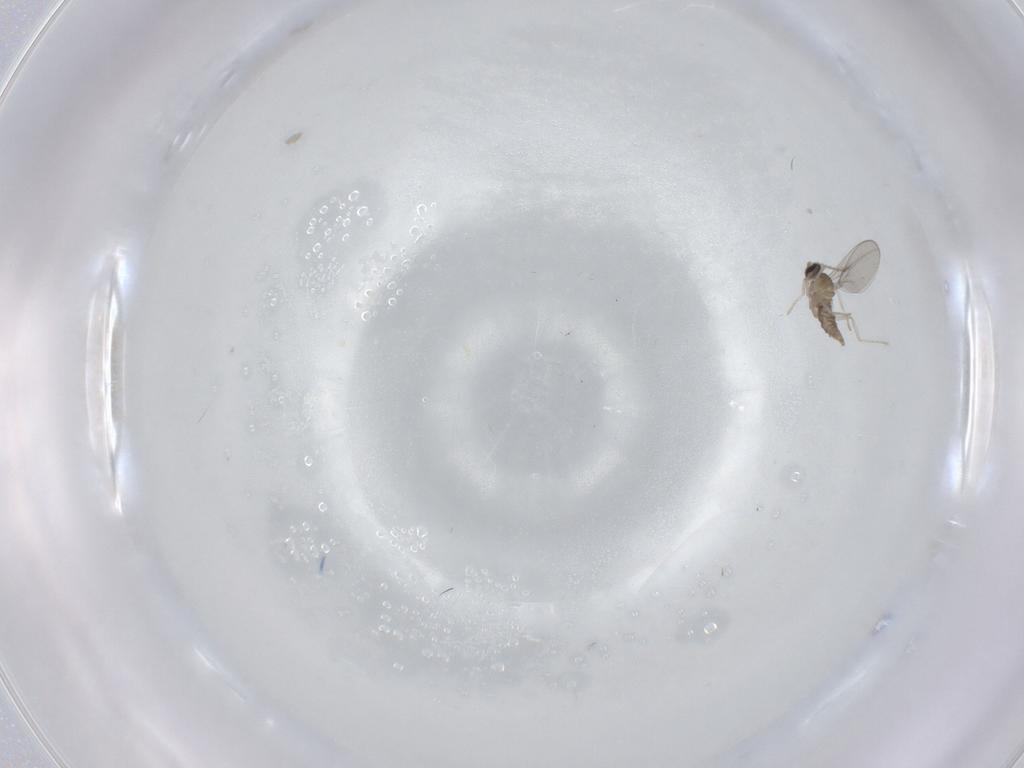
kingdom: Animalia
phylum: Arthropoda
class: Insecta
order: Diptera
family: Cecidomyiidae
